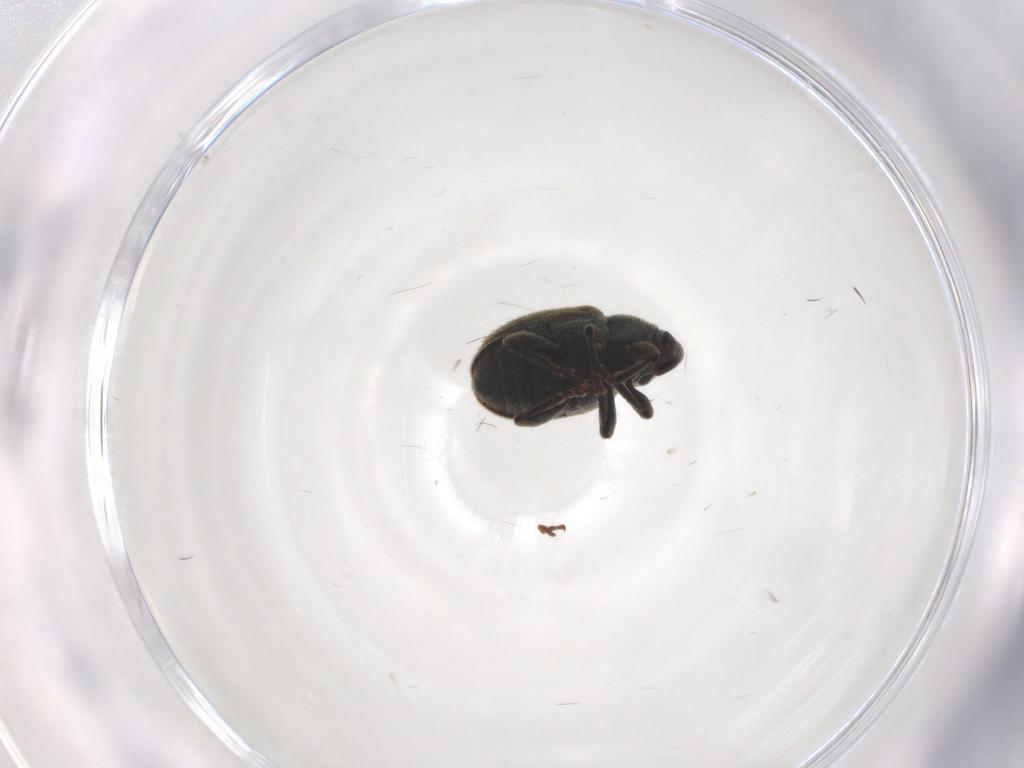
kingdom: Animalia
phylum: Arthropoda
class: Insecta
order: Coleoptera
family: Curculionidae
